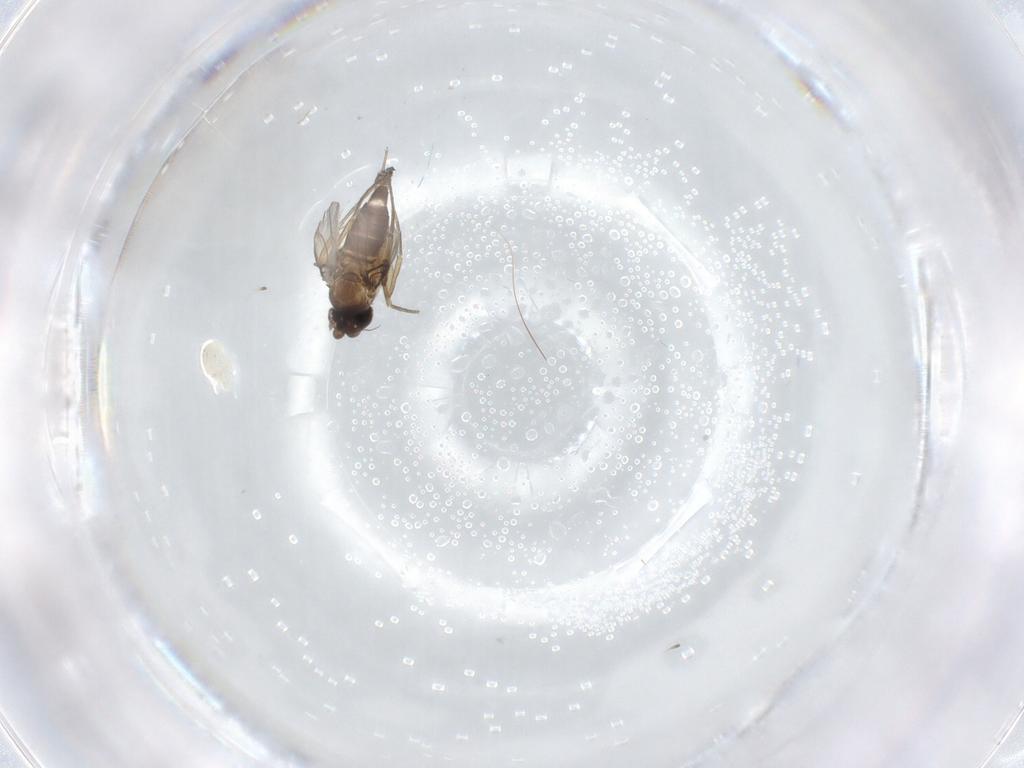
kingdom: Animalia
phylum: Arthropoda
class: Insecta
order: Diptera
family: Phoridae
